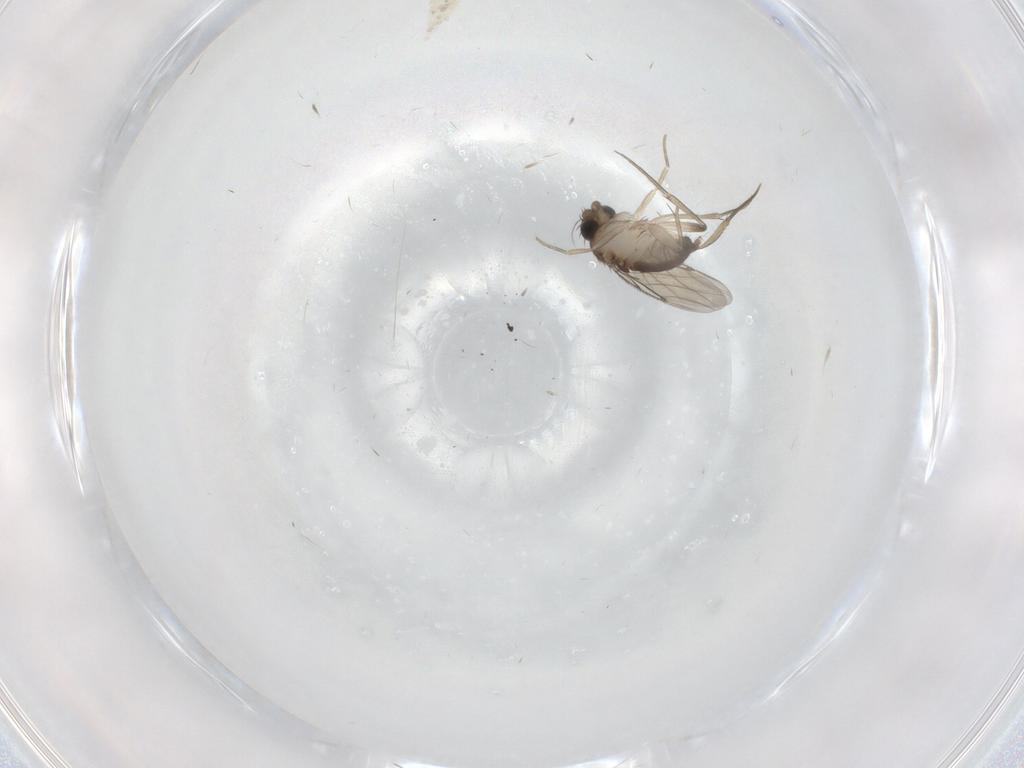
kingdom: Animalia
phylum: Arthropoda
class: Insecta
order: Diptera
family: Phoridae
